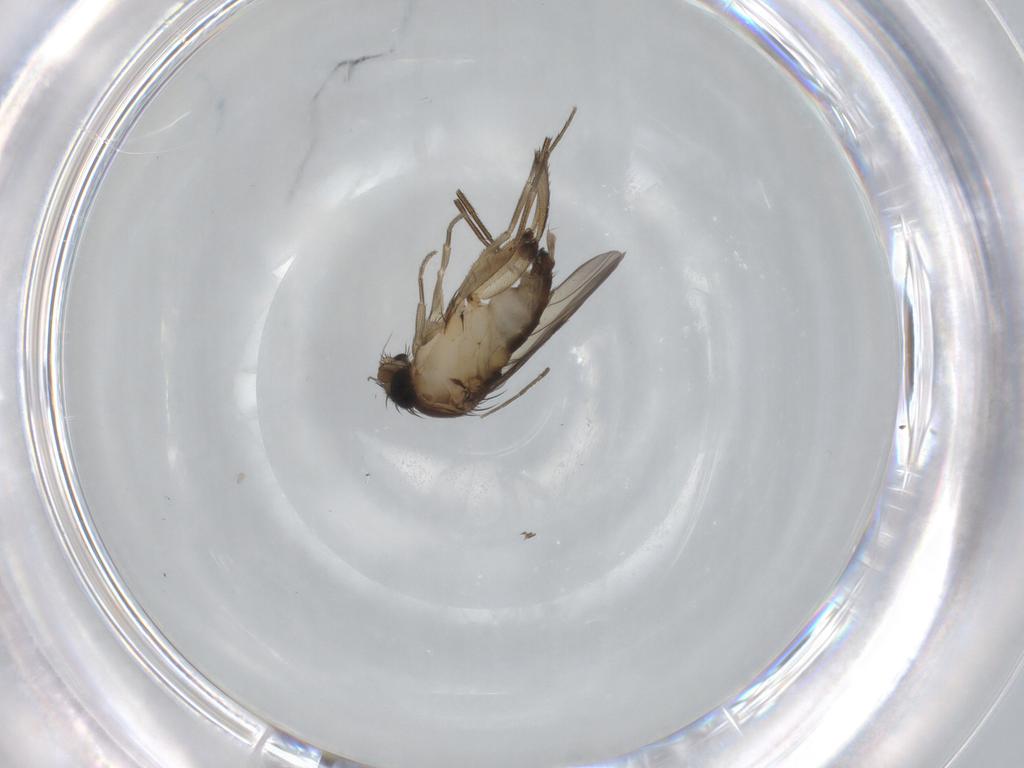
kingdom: Animalia
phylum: Arthropoda
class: Insecta
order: Diptera
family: Phoridae
